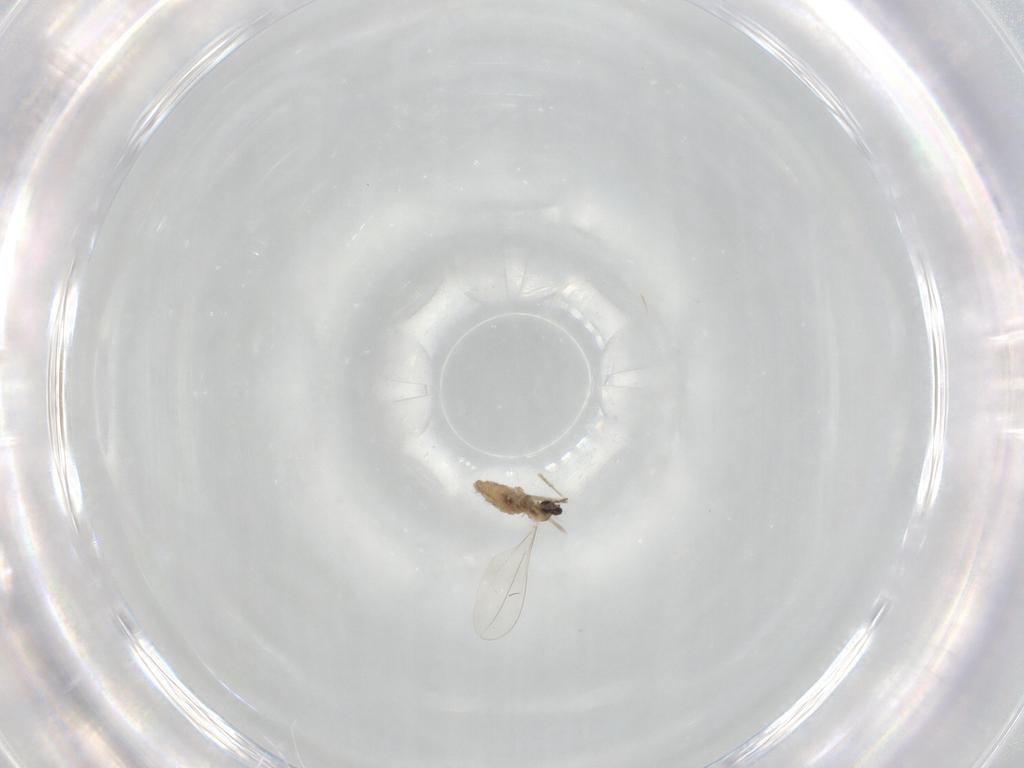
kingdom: Animalia
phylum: Arthropoda
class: Insecta
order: Diptera
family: Cecidomyiidae
